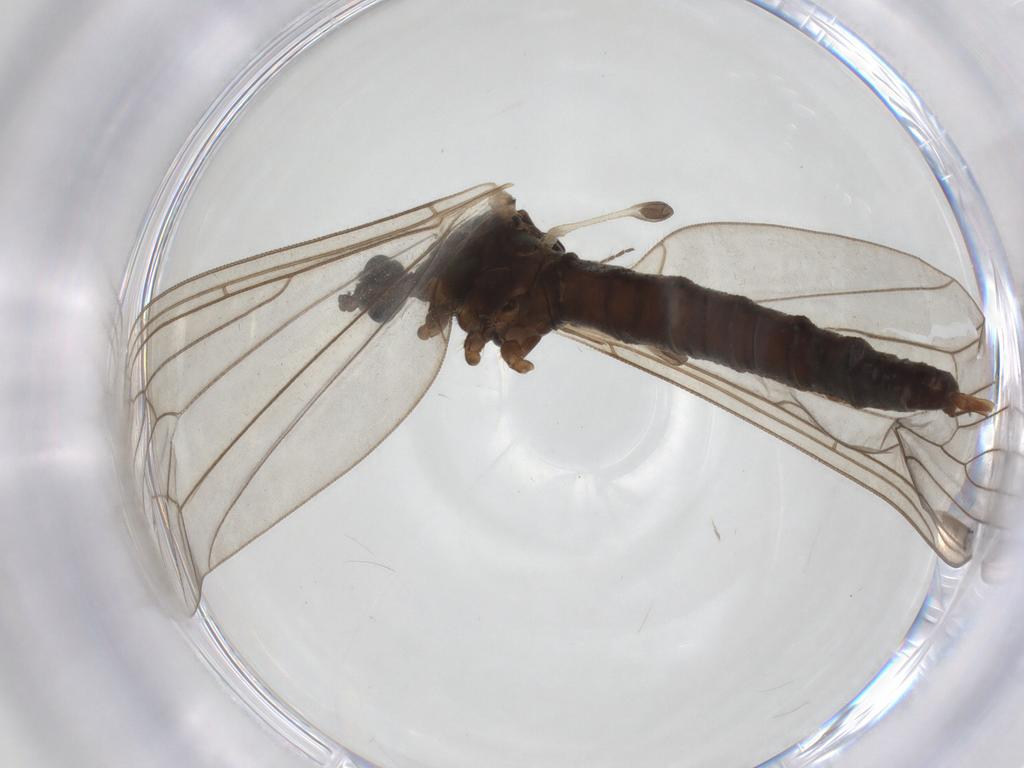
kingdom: Animalia
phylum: Arthropoda
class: Insecta
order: Diptera
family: Trichoceridae
